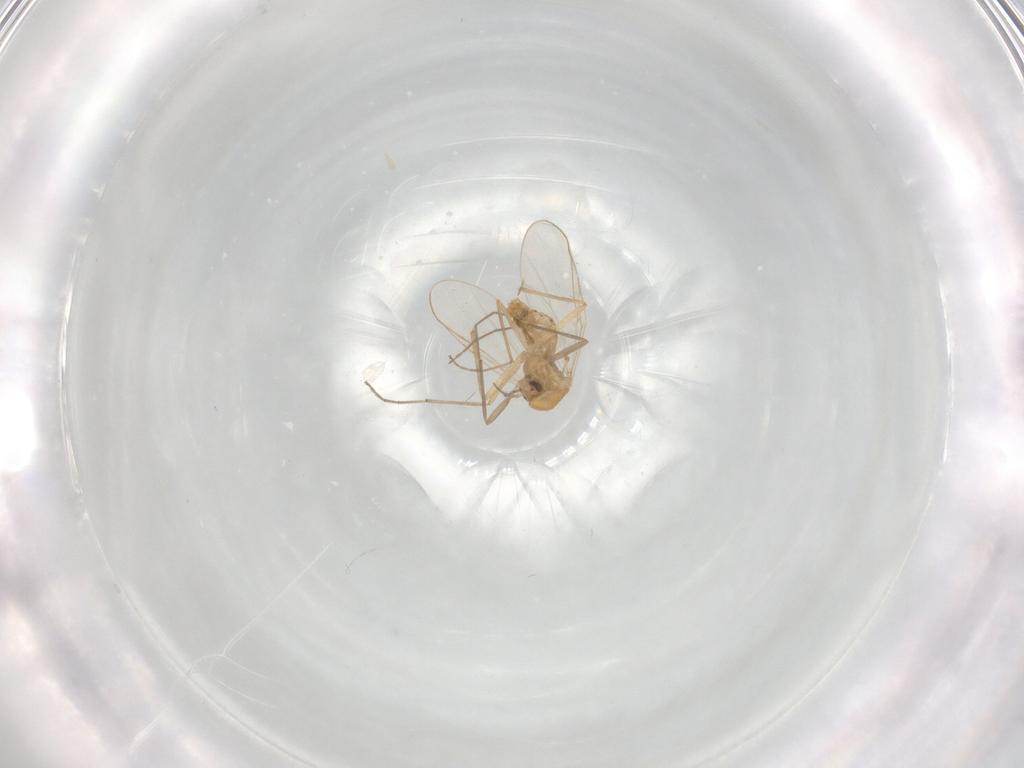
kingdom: Animalia
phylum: Arthropoda
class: Insecta
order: Diptera
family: Chironomidae
